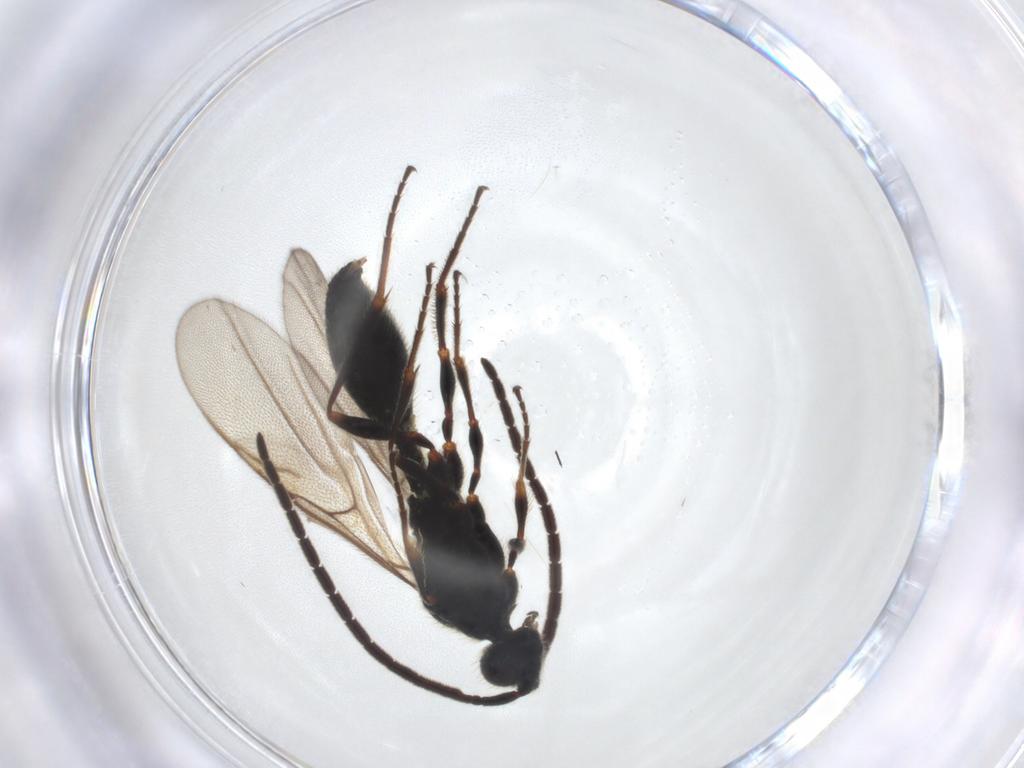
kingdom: Animalia
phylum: Arthropoda
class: Insecta
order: Hymenoptera
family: Diapriidae
